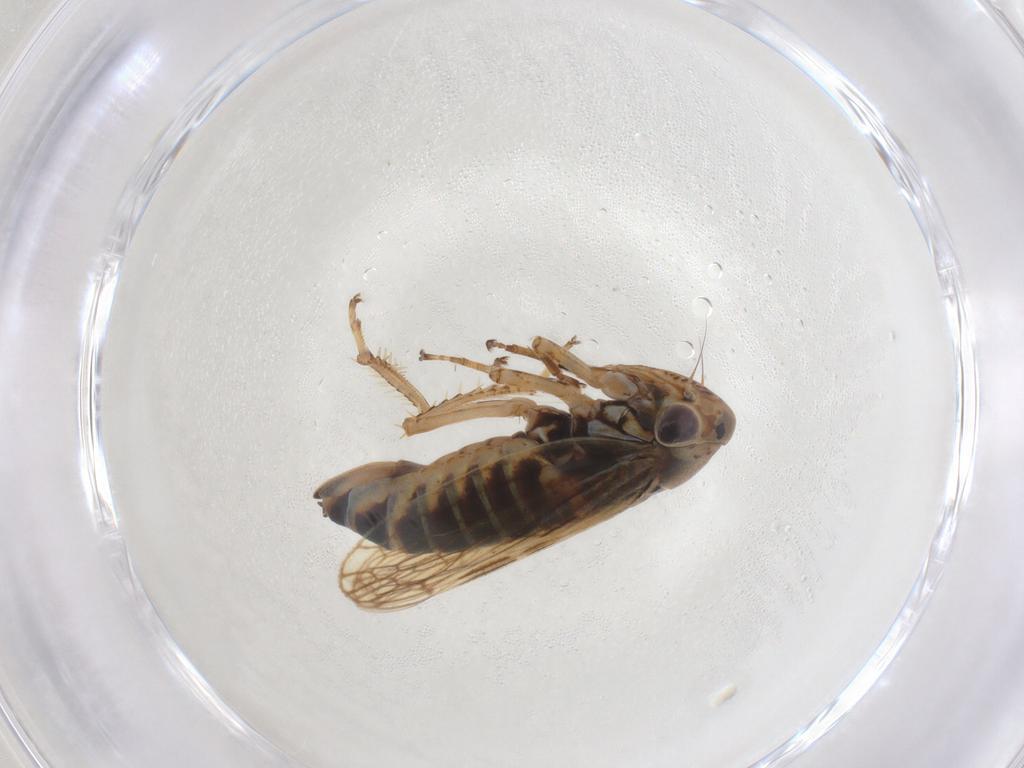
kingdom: Animalia
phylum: Arthropoda
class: Insecta
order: Hemiptera
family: Cicadellidae
